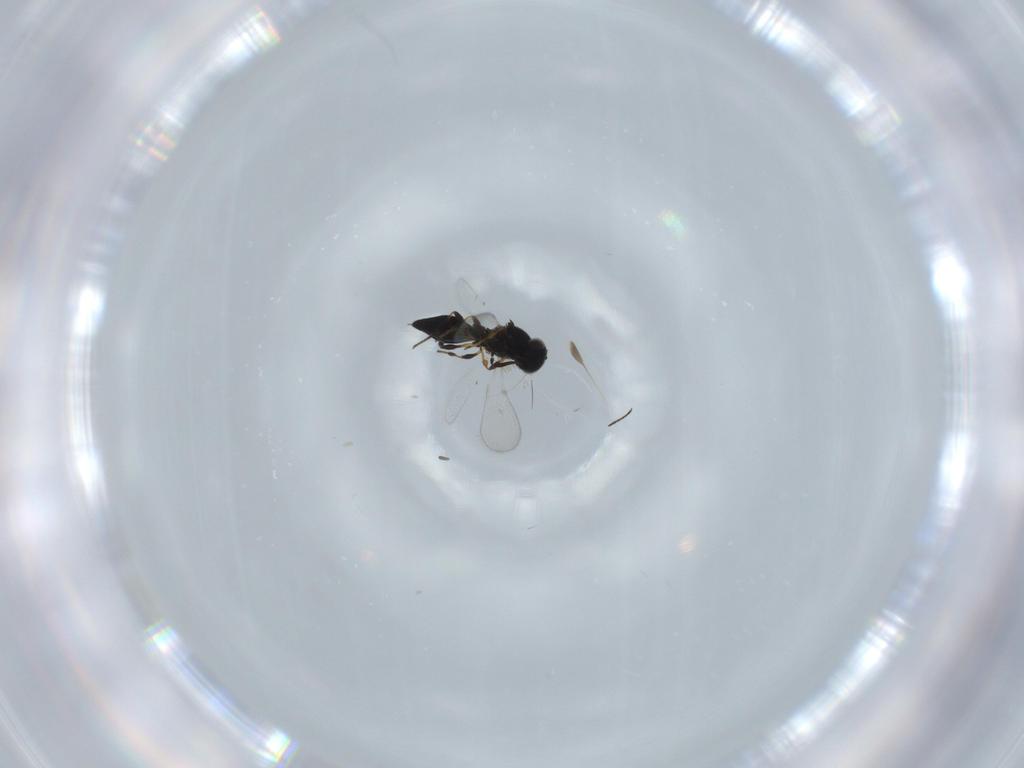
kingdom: Animalia
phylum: Arthropoda
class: Insecta
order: Hymenoptera
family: Platygastridae
